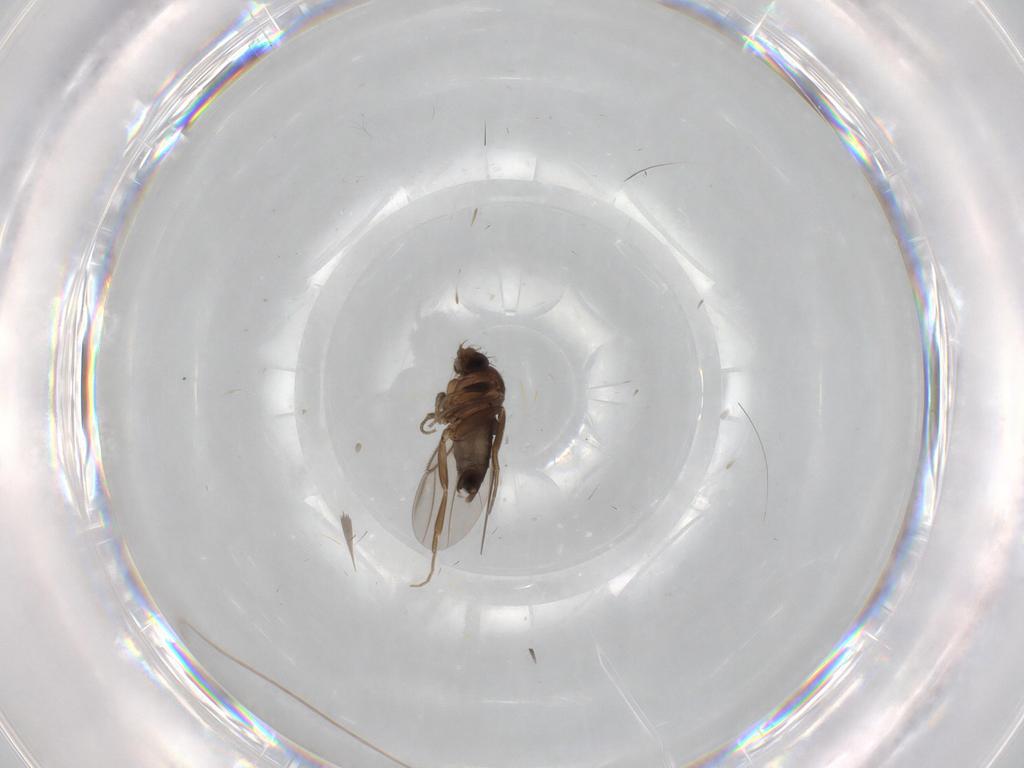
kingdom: Animalia
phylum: Arthropoda
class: Insecta
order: Diptera
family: Phoridae
